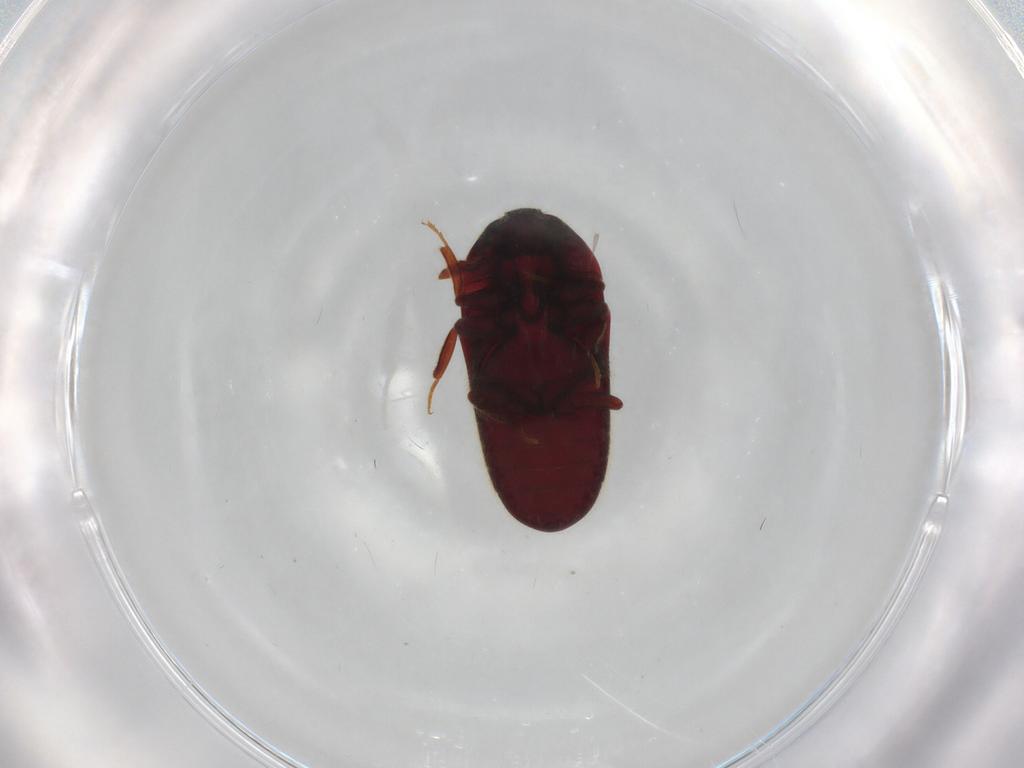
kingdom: Animalia
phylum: Arthropoda
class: Insecta
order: Coleoptera
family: Throscidae
